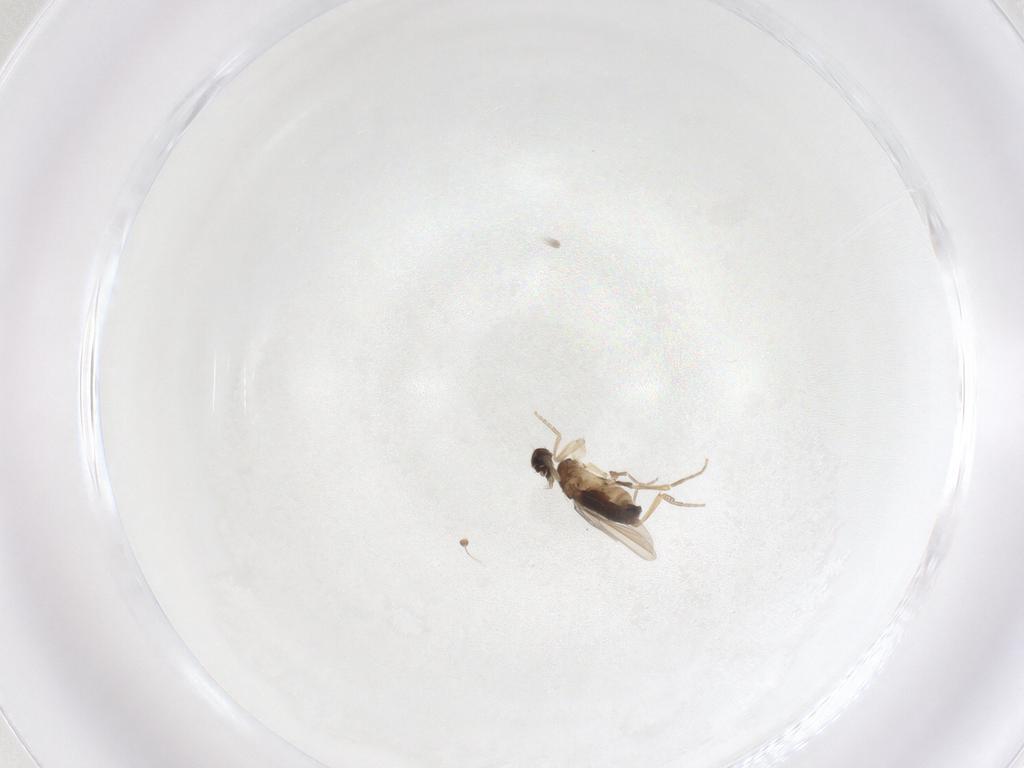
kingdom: Animalia
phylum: Arthropoda
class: Insecta
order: Diptera
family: Phoridae
